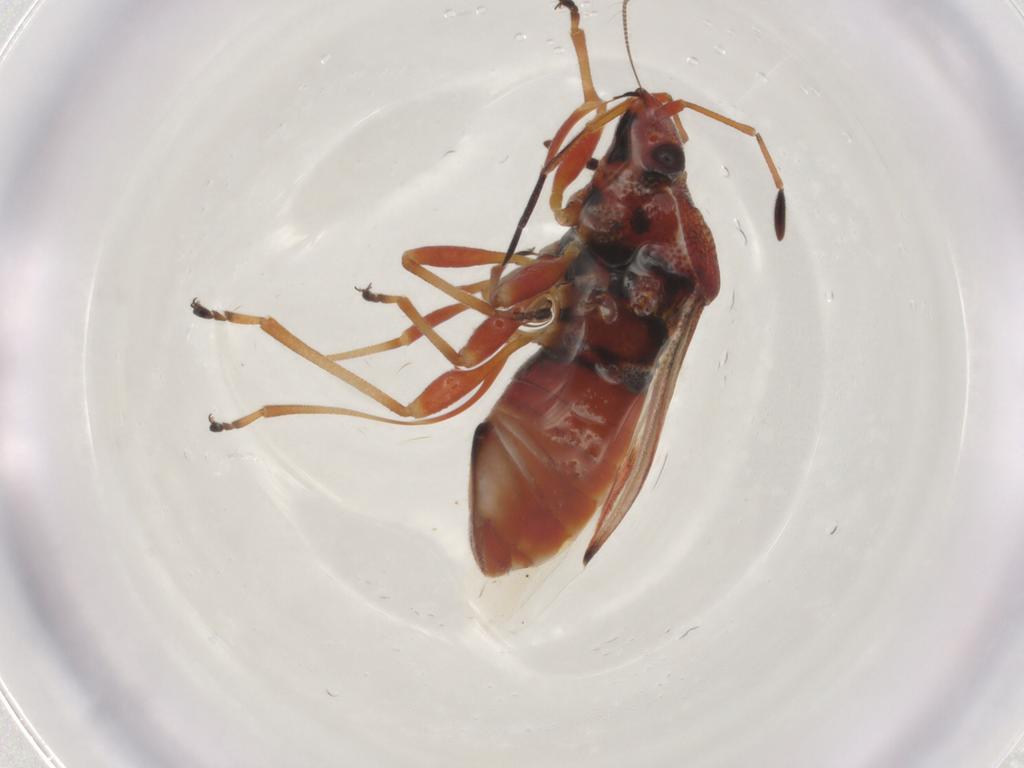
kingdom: Animalia
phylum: Arthropoda
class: Insecta
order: Hemiptera
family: Lygaeidae
